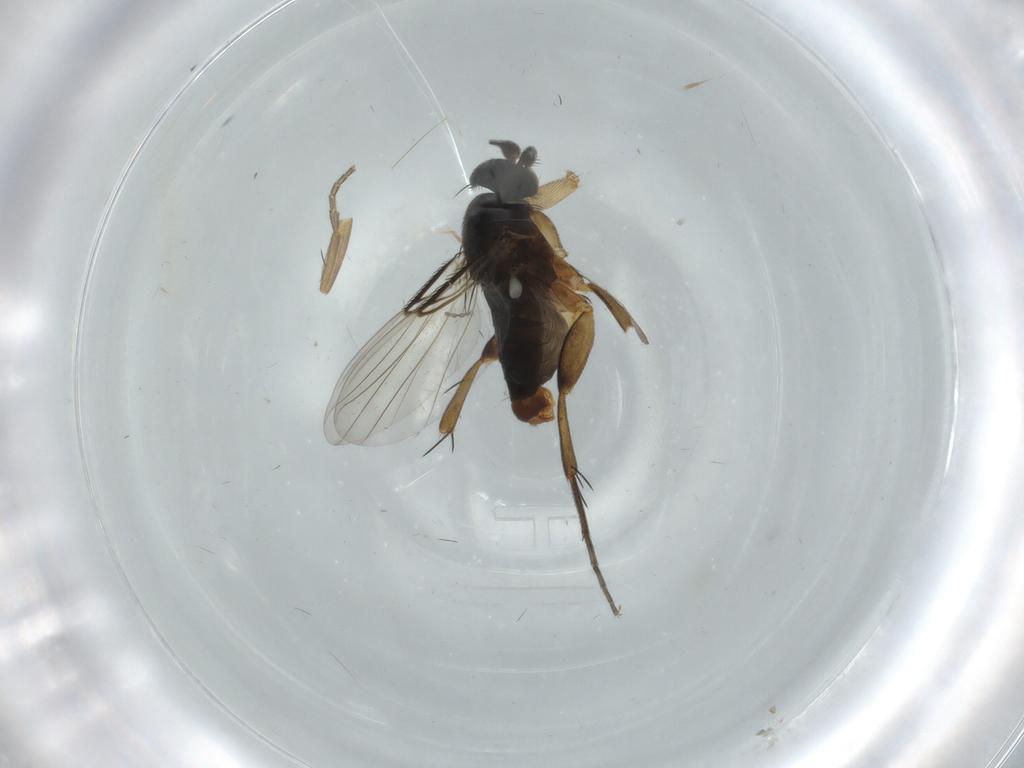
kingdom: Animalia
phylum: Arthropoda
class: Insecta
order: Diptera
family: Phoridae
